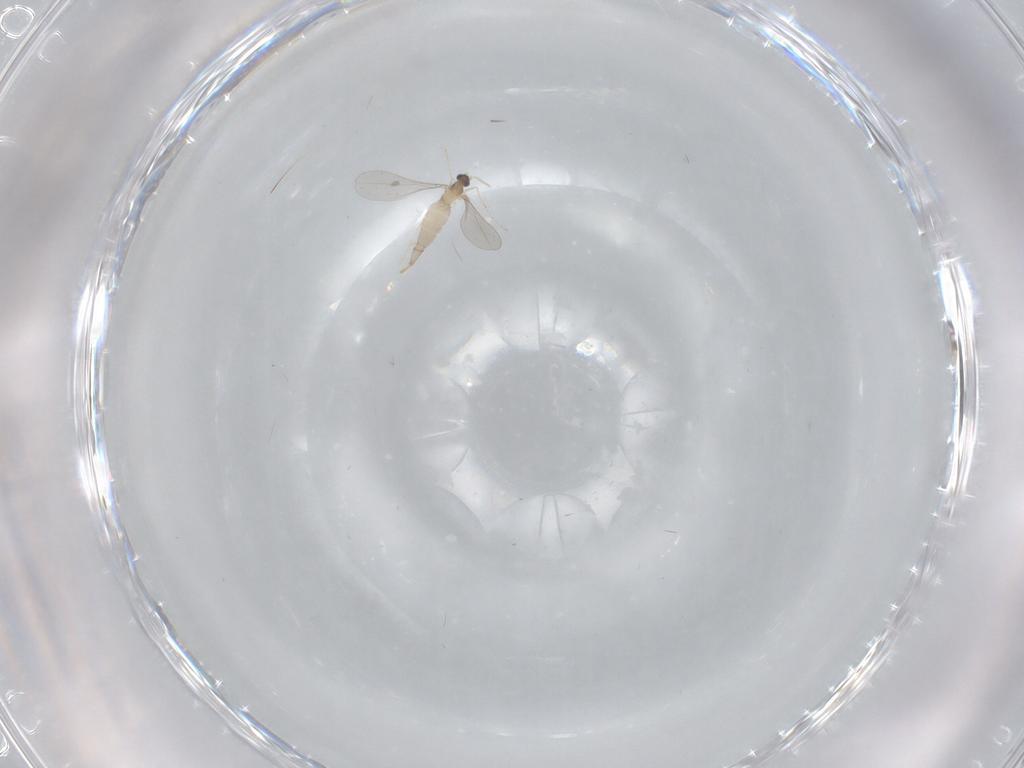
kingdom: Animalia
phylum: Arthropoda
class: Insecta
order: Diptera
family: Cecidomyiidae
